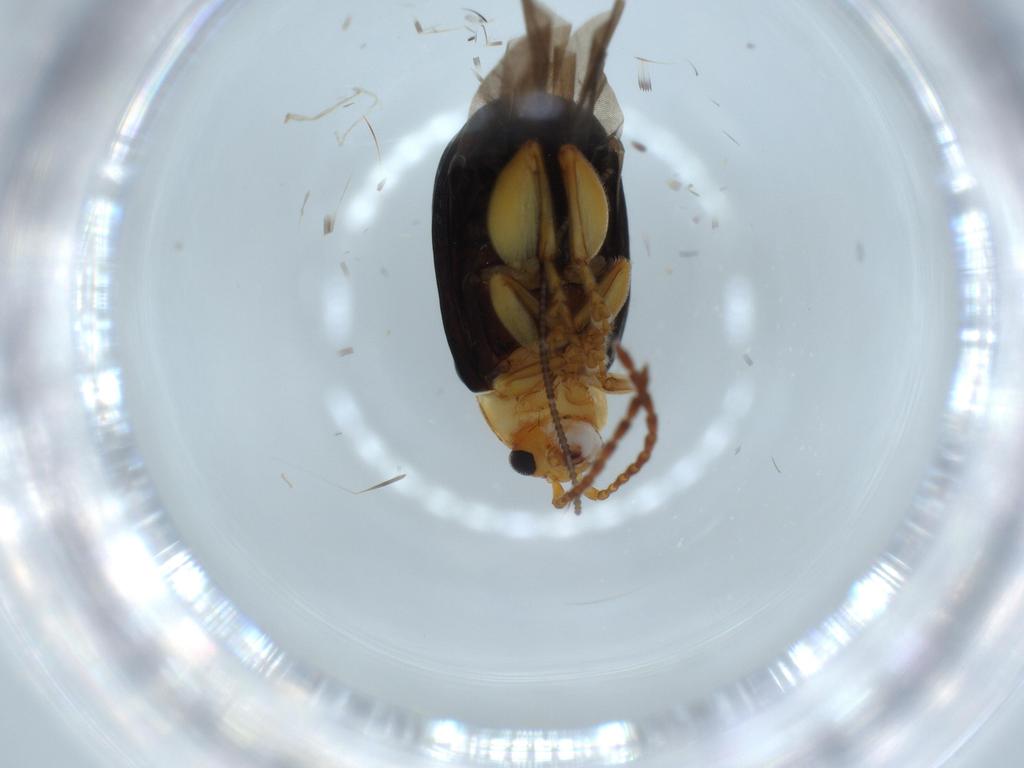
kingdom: Animalia
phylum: Arthropoda
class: Insecta
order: Coleoptera
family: Chrysomelidae
